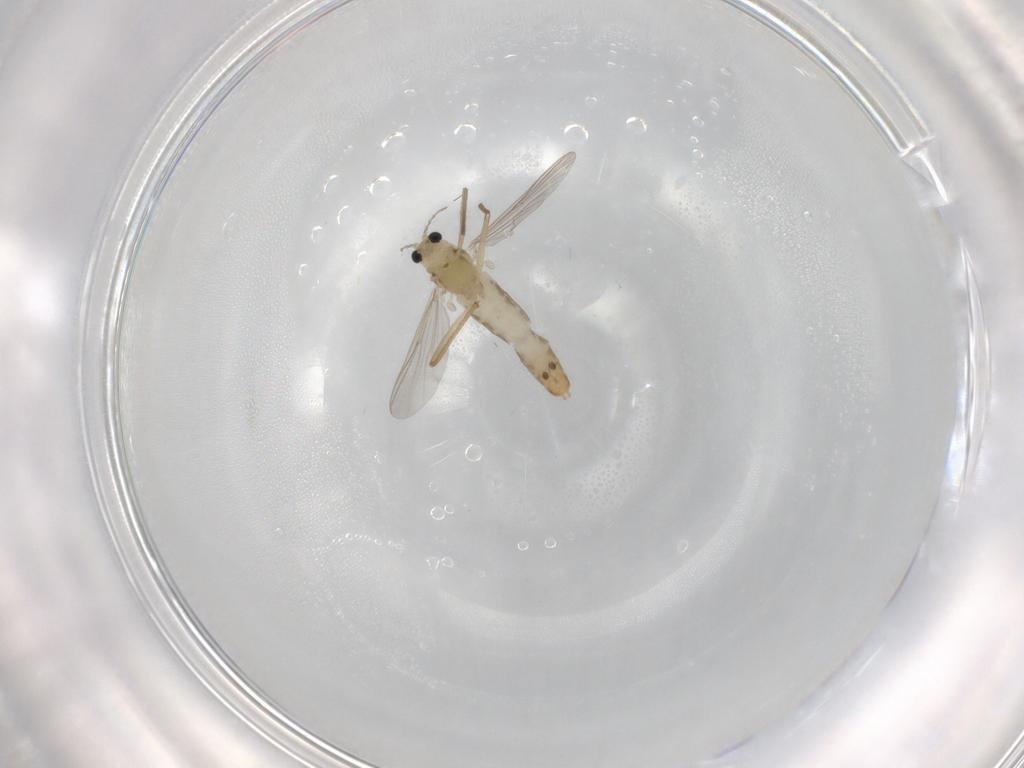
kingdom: Animalia
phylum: Arthropoda
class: Insecta
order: Diptera
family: Chironomidae
